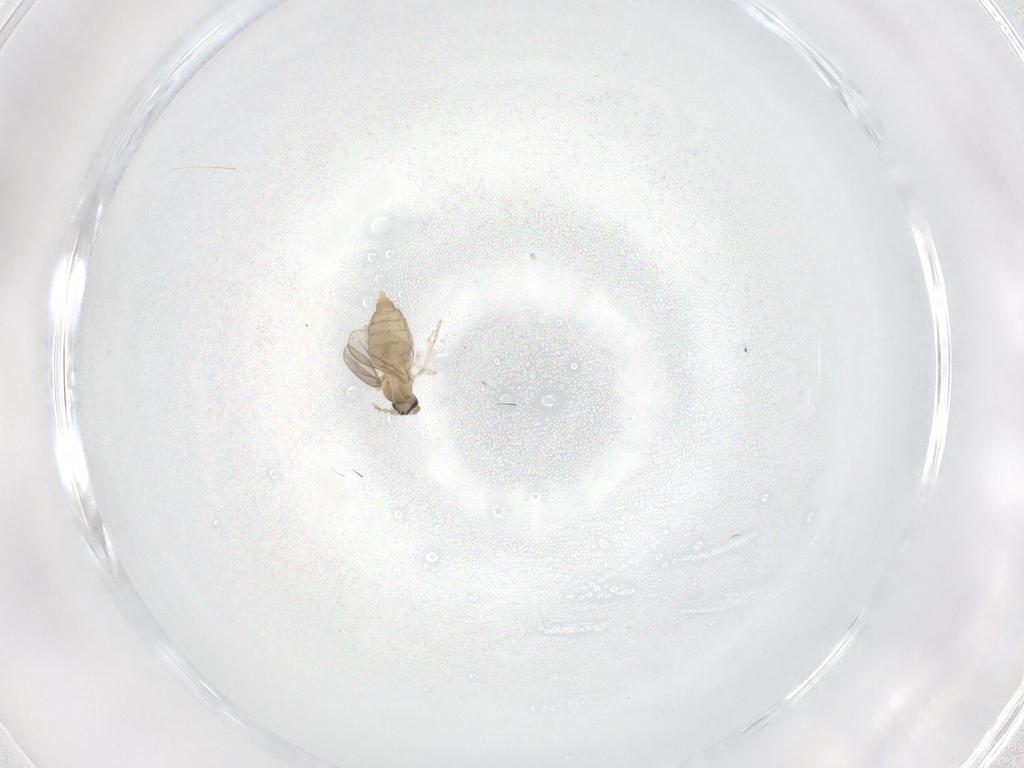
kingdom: Animalia
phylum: Arthropoda
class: Insecta
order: Diptera
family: Cecidomyiidae
